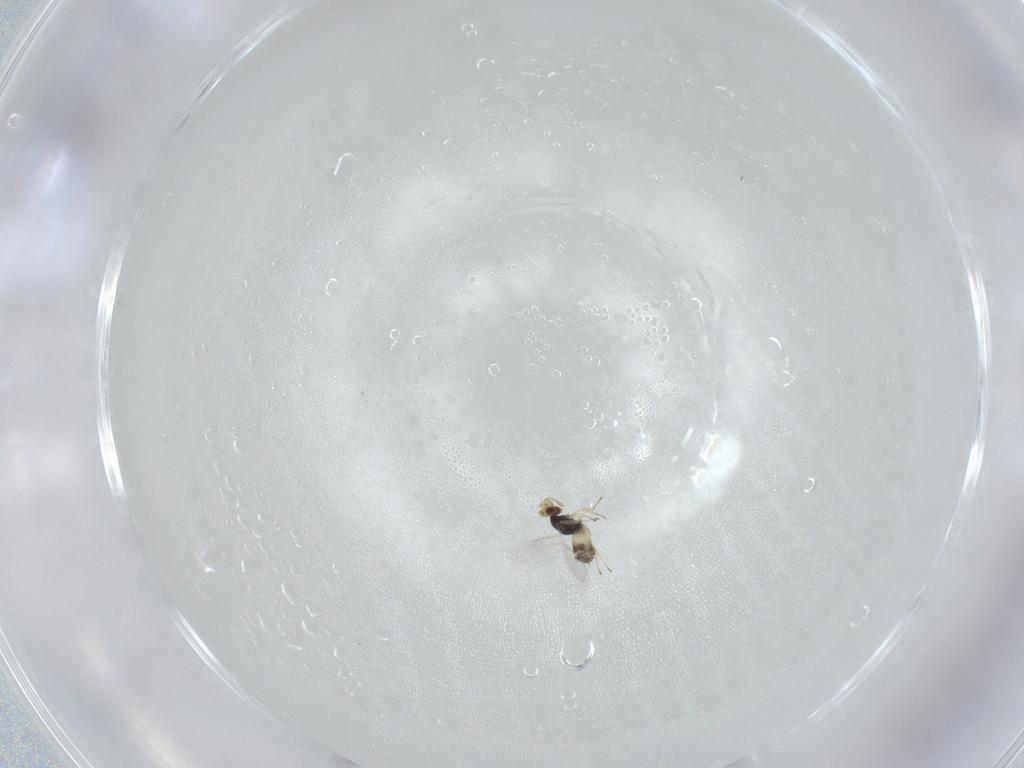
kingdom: Animalia
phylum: Arthropoda
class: Insecta
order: Hymenoptera
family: Eulophidae
